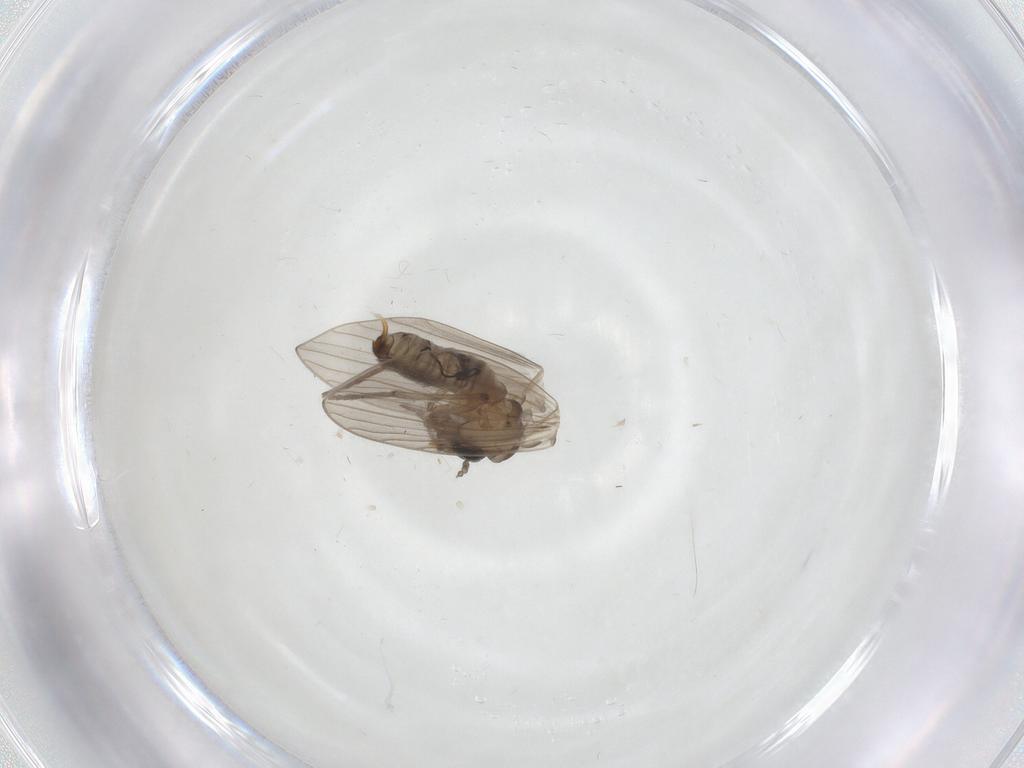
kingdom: Animalia
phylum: Arthropoda
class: Insecta
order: Diptera
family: Psychodidae
